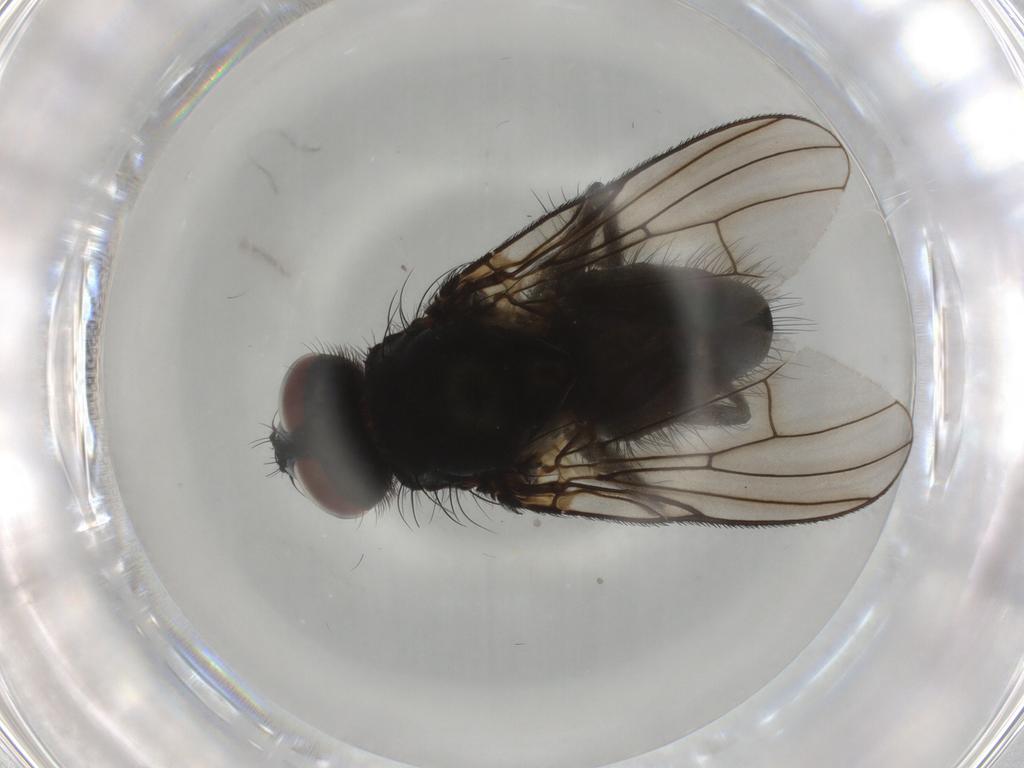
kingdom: Animalia
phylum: Arthropoda
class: Insecta
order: Diptera
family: Muscidae
